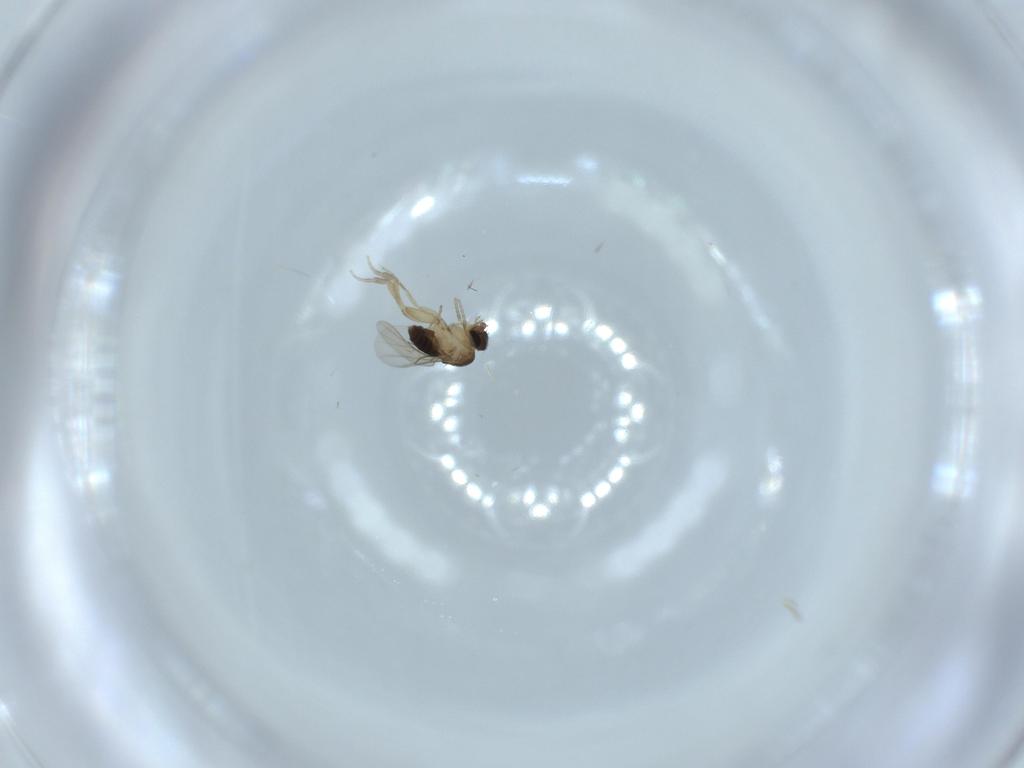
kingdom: Animalia
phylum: Arthropoda
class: Insecta
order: Diptera
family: Phoridae
